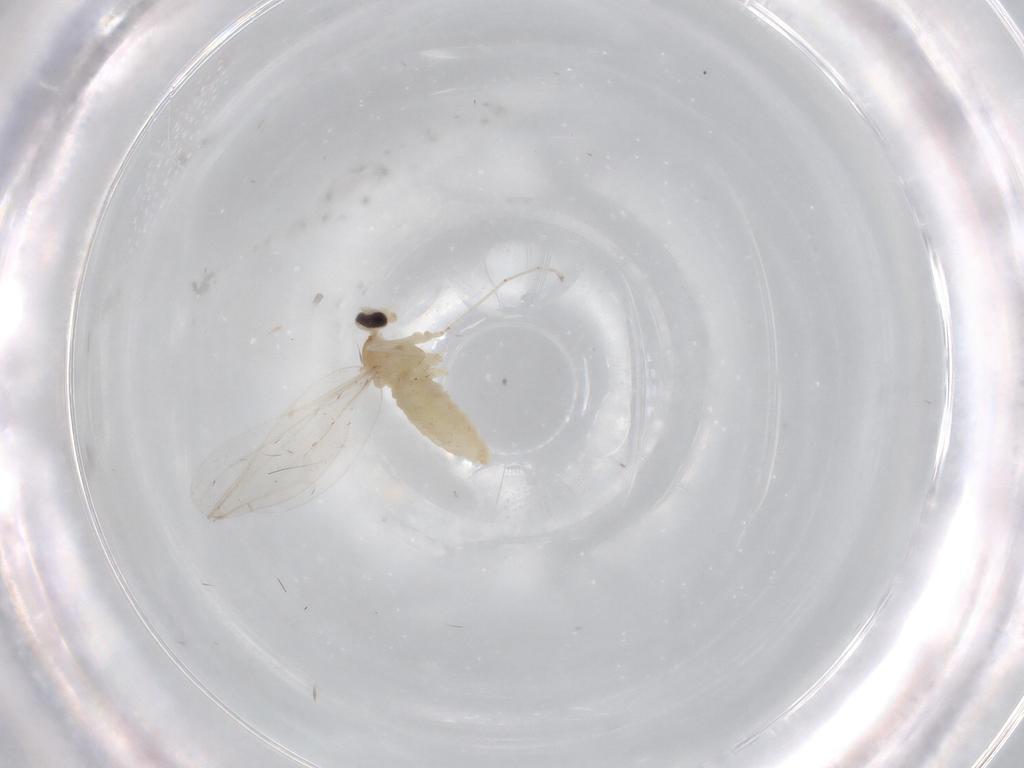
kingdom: Animalia
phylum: Arthropoda
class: Insecta
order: Diptera
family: Cecidomyiidae
